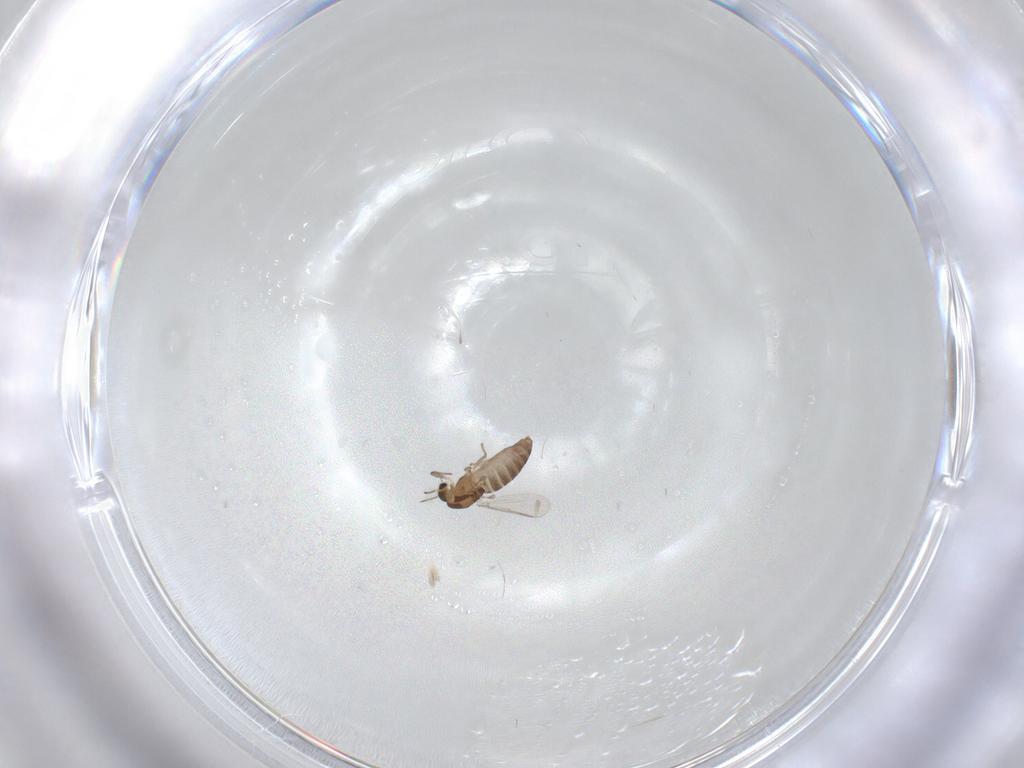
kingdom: Animalia
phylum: Arthropoda
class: Insecta
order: Diptera
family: Chironomidae
